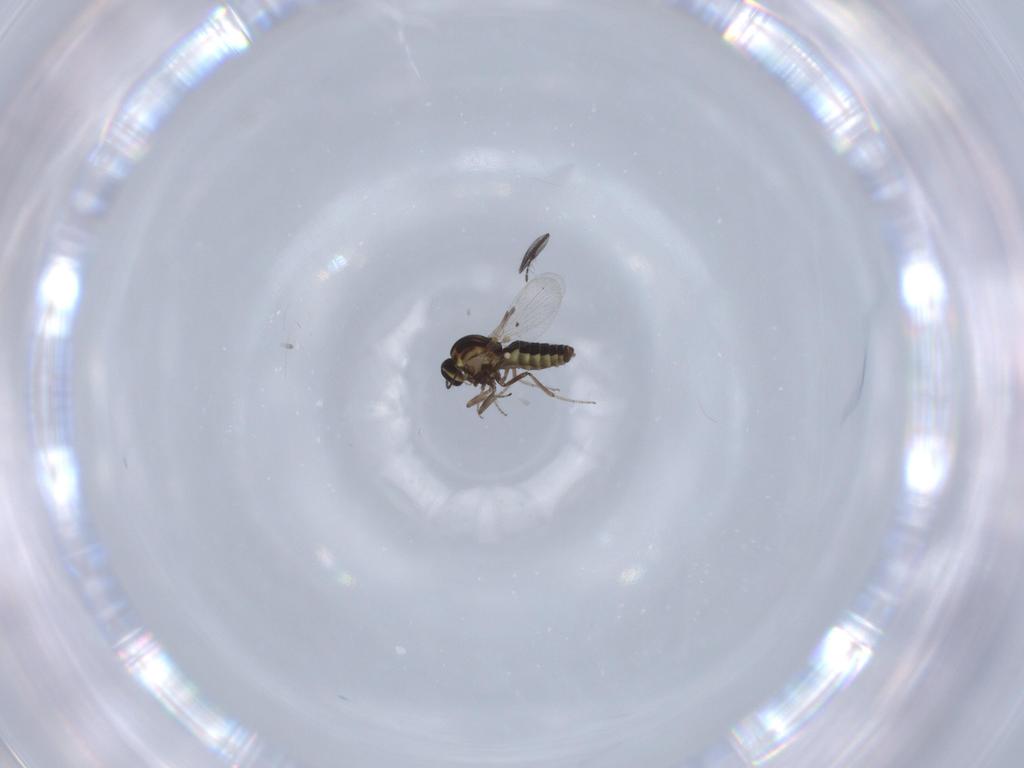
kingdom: Animalia
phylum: Arthropoda
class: Insecta
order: Diptera
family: Ceratopogonidae
